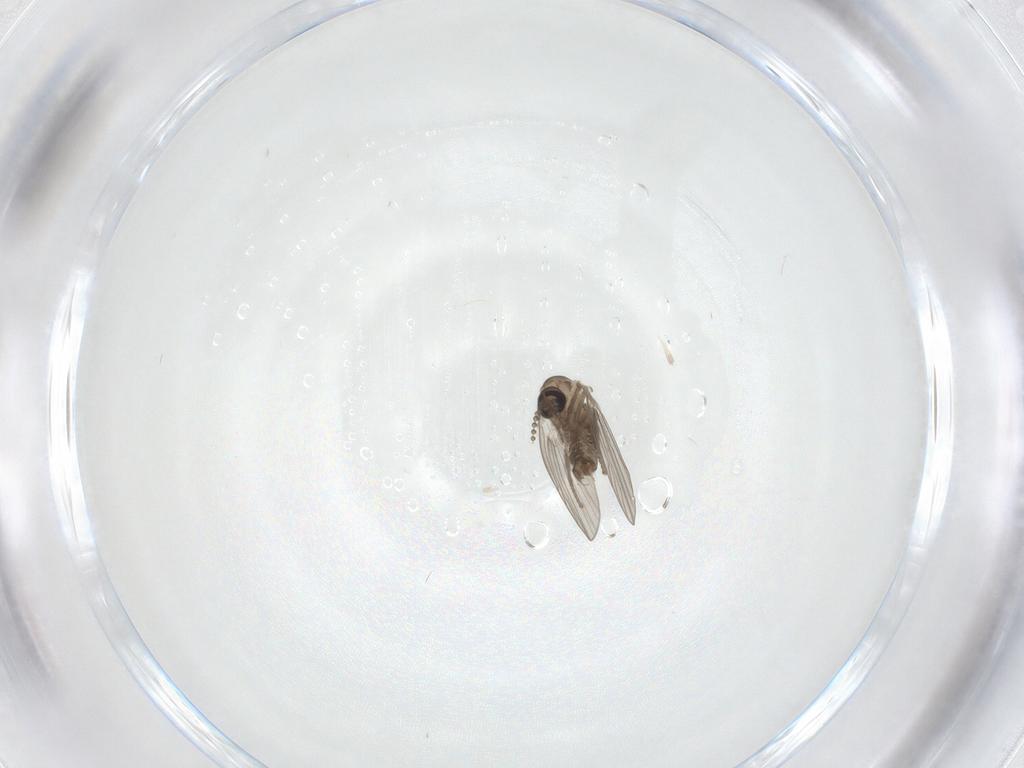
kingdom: Animalia
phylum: Arthropoda
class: Insecta
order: Diptera
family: Psychodidae
